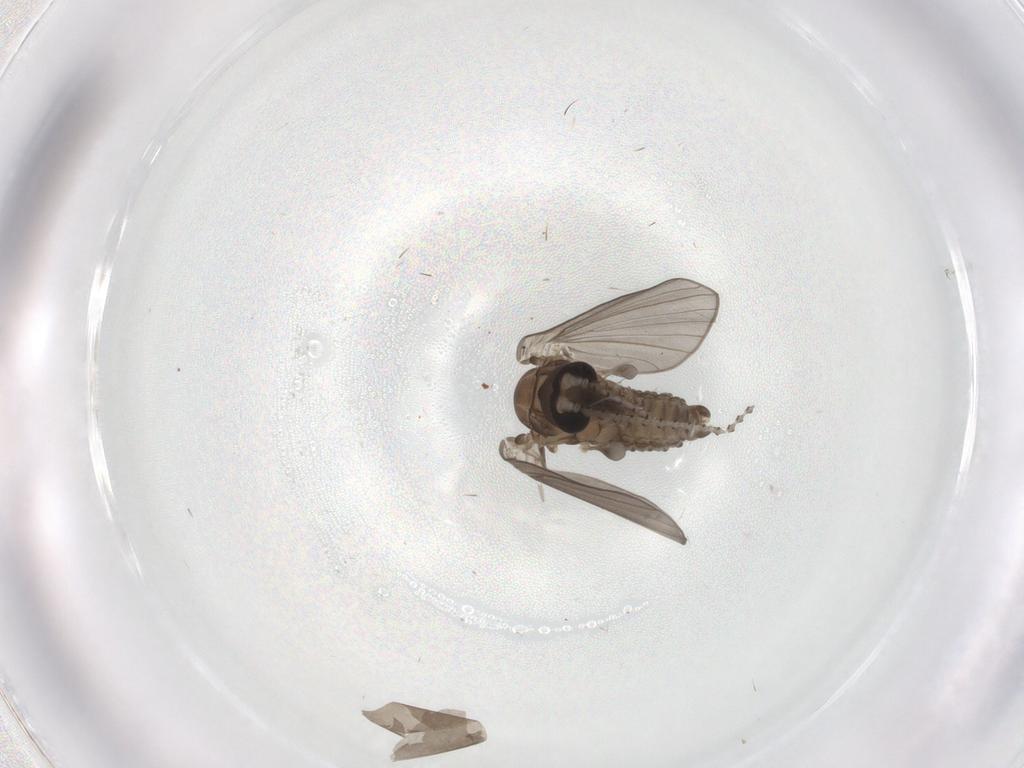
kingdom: Animalia
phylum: Arthropoda
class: Insecta
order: Diptera
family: Psychodidae
